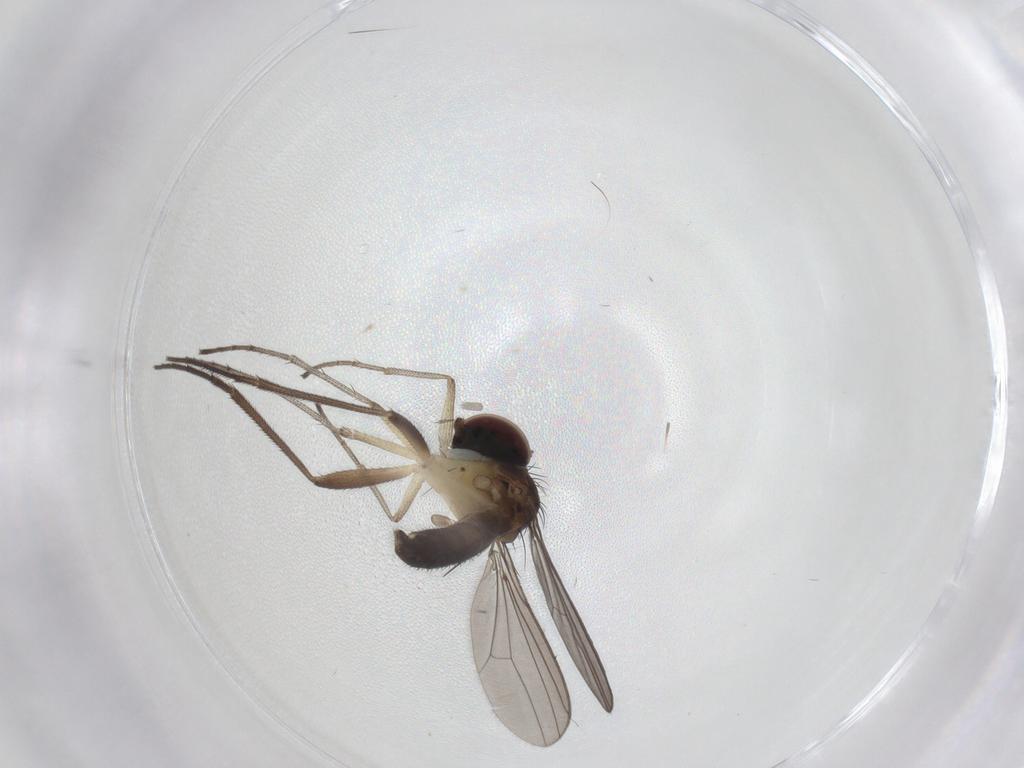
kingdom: Animalia
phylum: Arthropoda
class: Insecta
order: Diptera
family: Dolichopodidae
